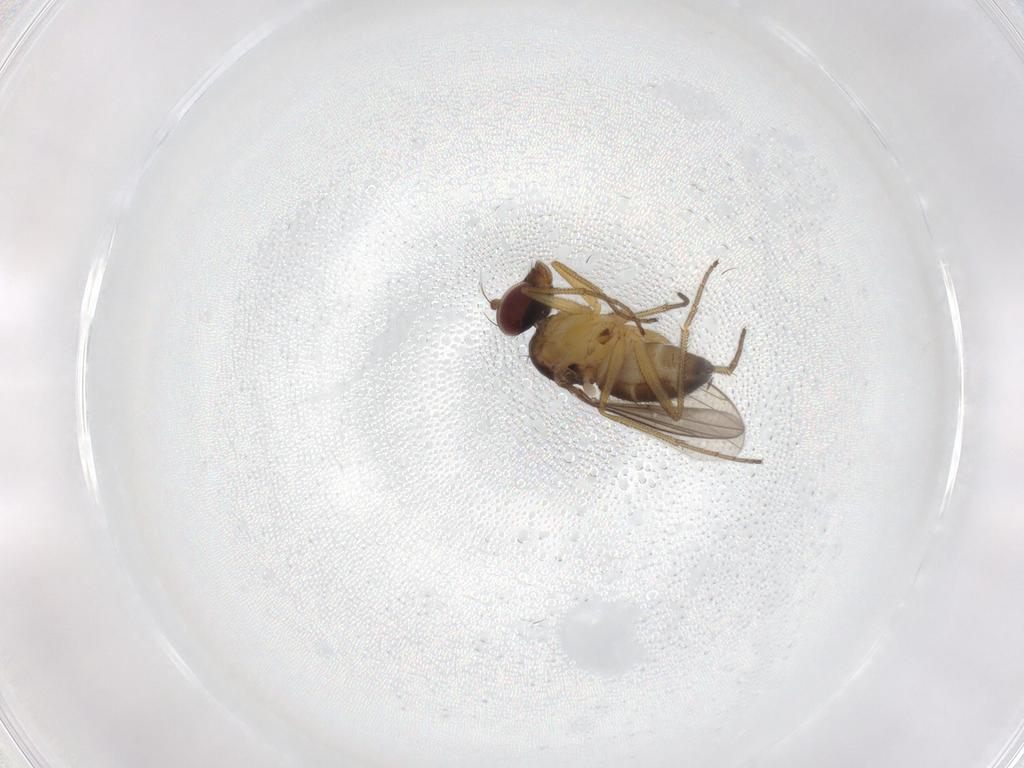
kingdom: Animalia
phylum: Arthropoda
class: Insecta
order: Diptera
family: Dolichopodidae
